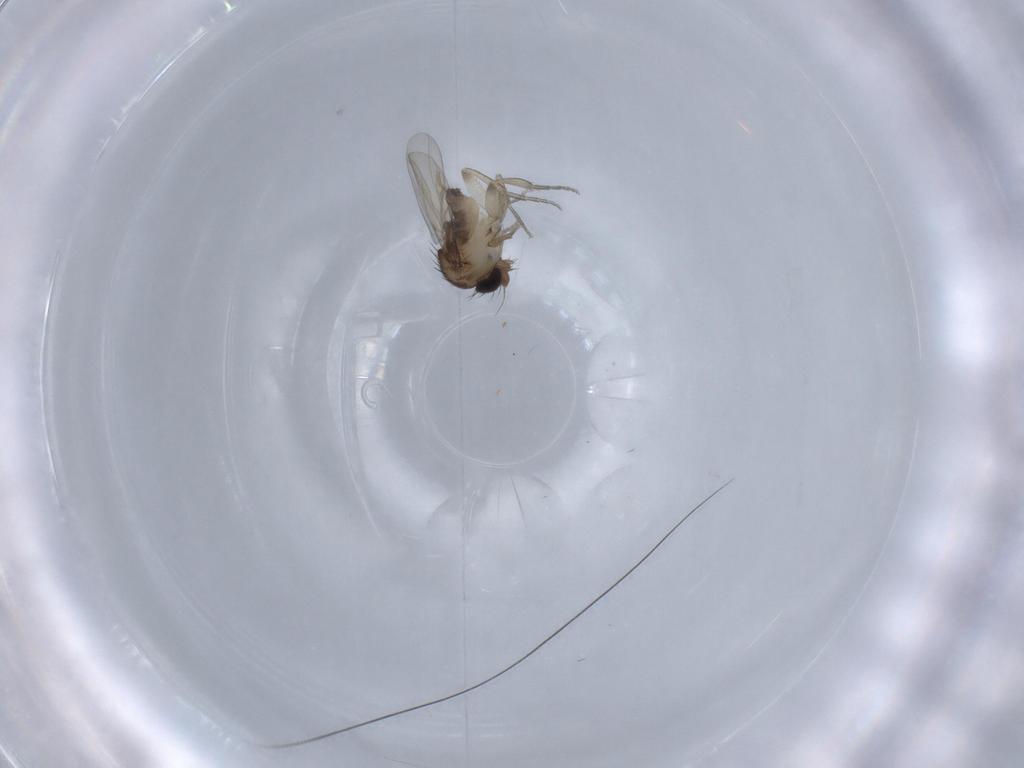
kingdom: Animalia
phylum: Arthropoda
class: Insecta
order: Diptera
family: Phoridae
